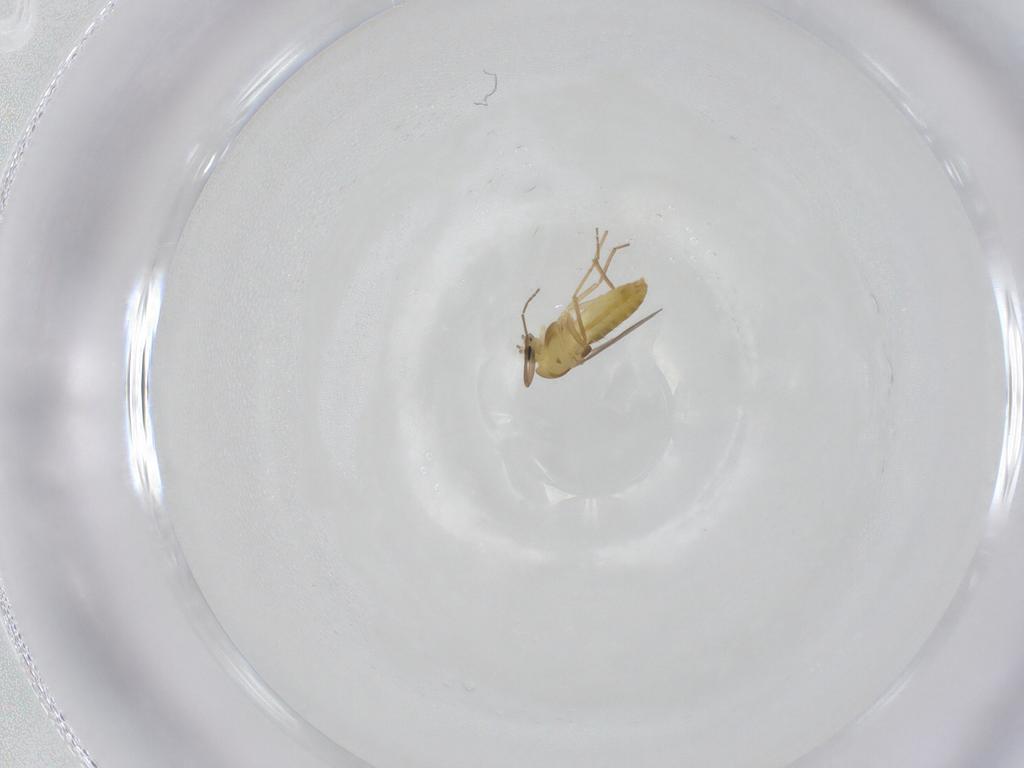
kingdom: Animalia
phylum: Arthropoda
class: Insecta
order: Diptera
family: Chironomidae
